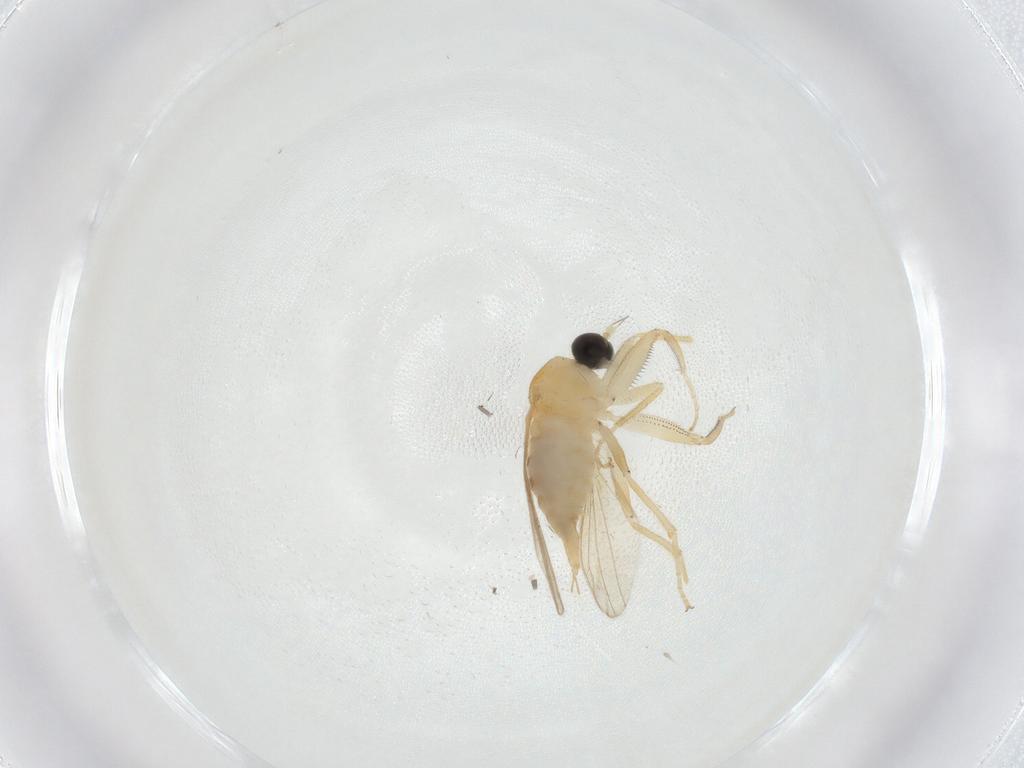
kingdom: Animalia
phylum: Arthropoda
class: Insecta
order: Diptera
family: Hybotidae
